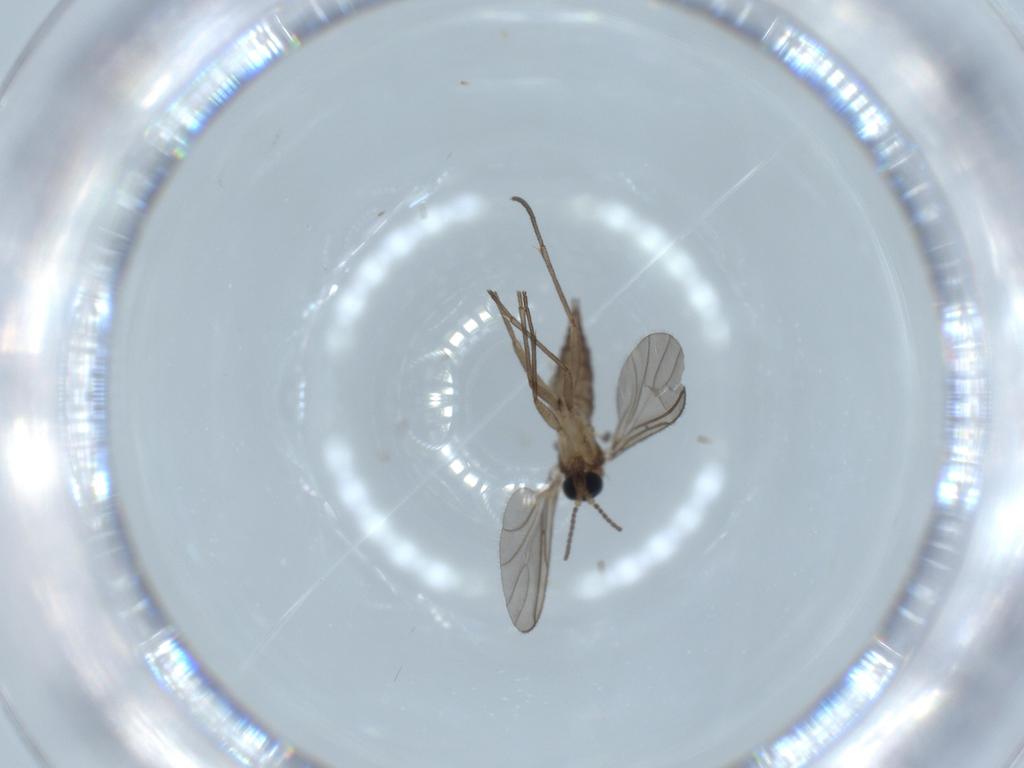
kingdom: Animalia
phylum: Arthropoda
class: Insecta
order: Diptera
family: Sciaridae
